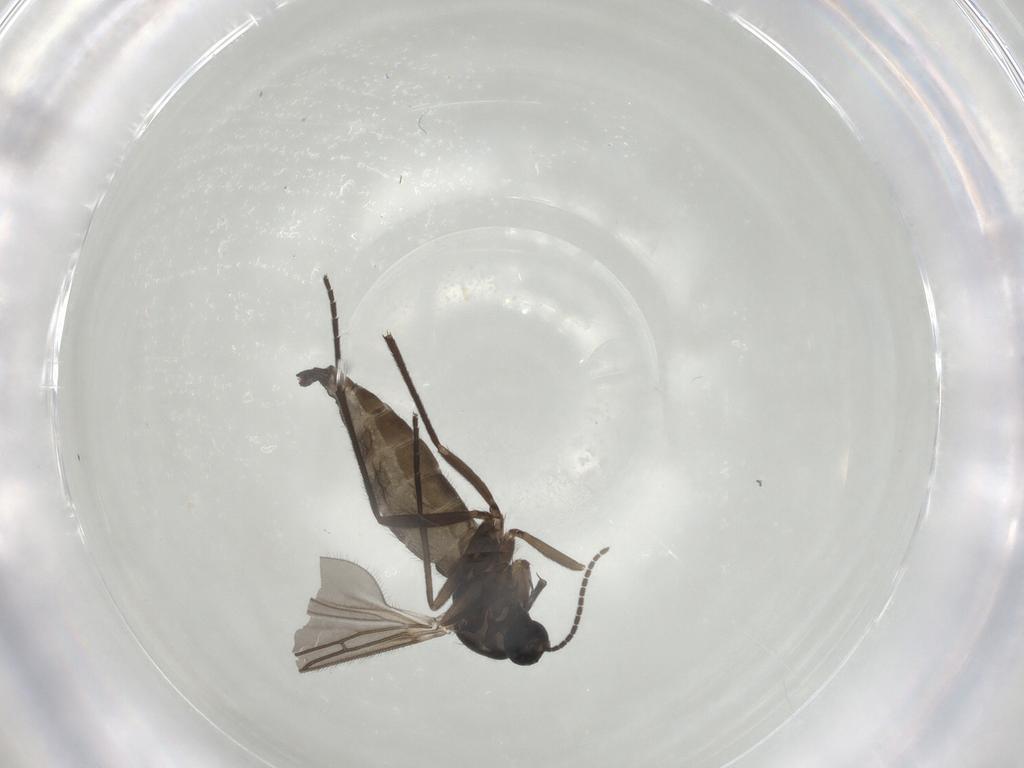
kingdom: Animalia
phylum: Arthropoda
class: Insecta
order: Diptera
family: Sciaridae
